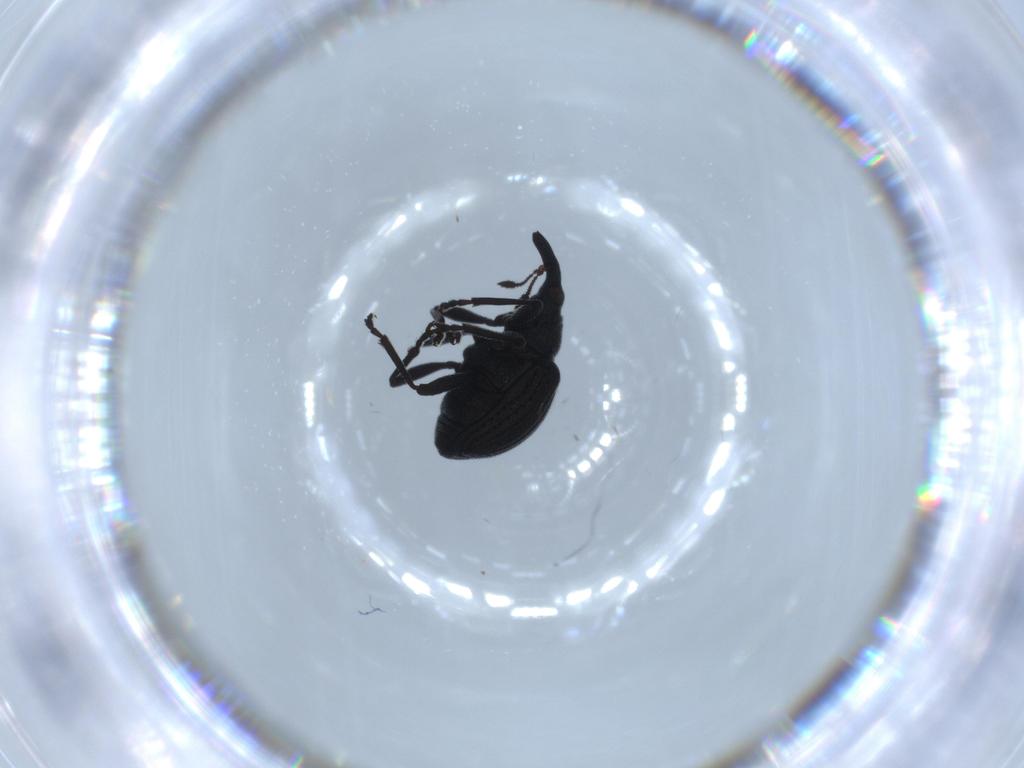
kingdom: Animalia
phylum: Arthropoda
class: Insecta
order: Coleoptera
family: Brentidae
